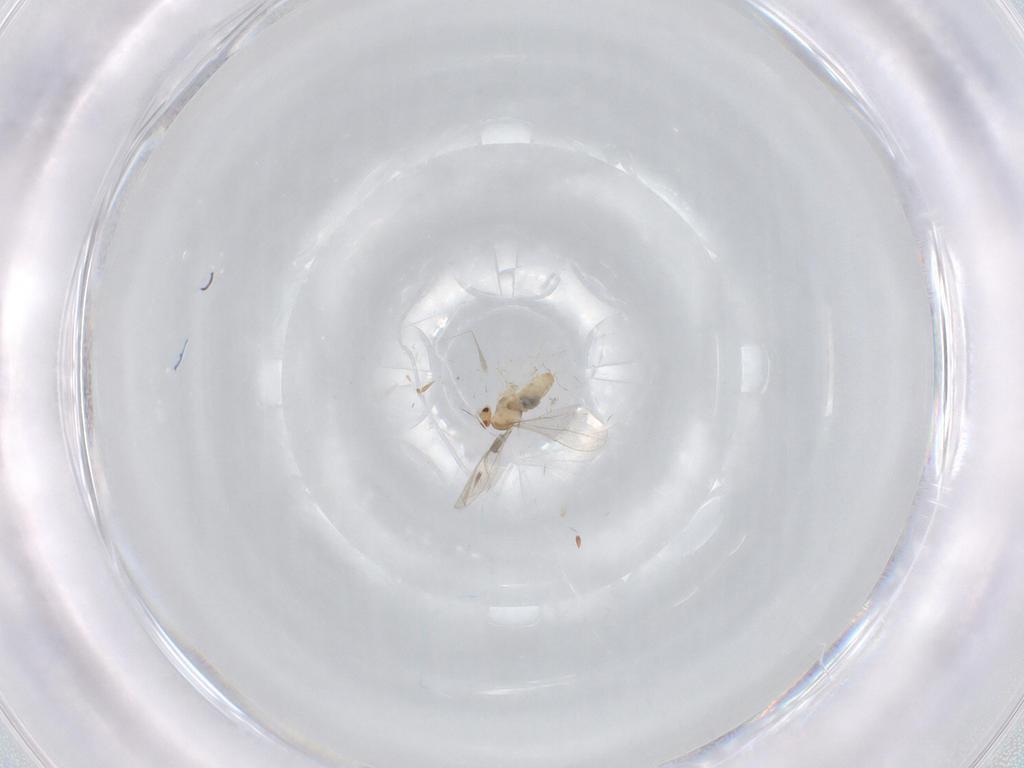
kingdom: Animalia
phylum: Arthropoda
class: Insecta
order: Diptera
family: Cecidomyiidae
